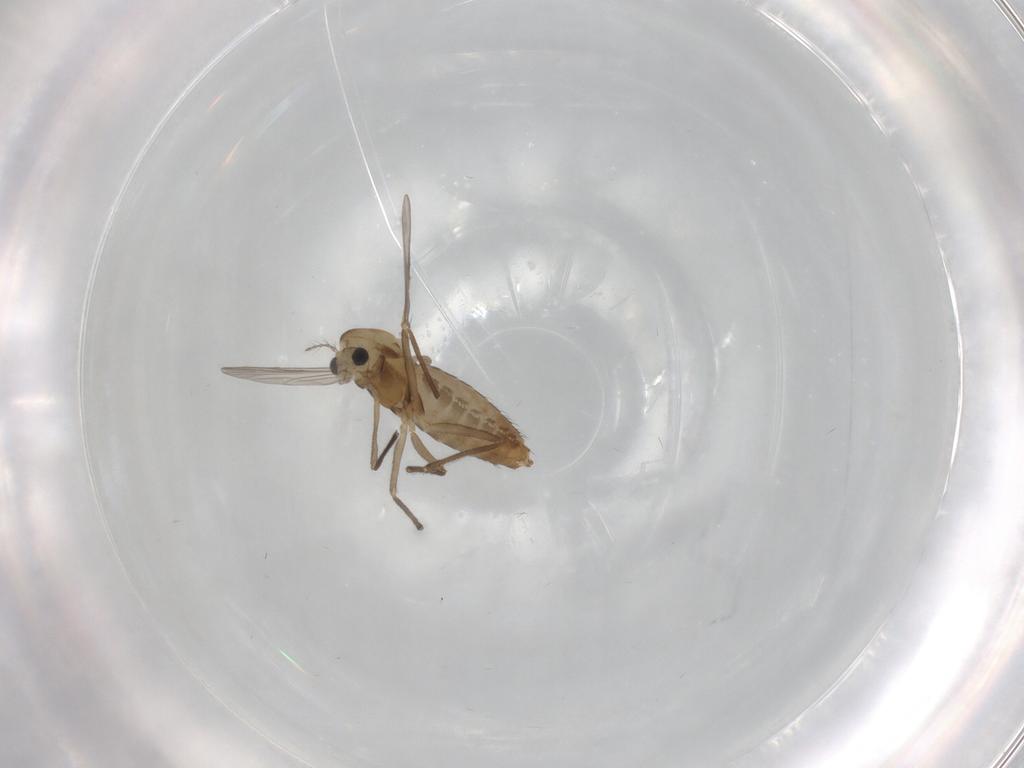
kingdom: Animalia
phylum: Arthropoda
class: Insecta
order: Diptera
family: Chironomidae
